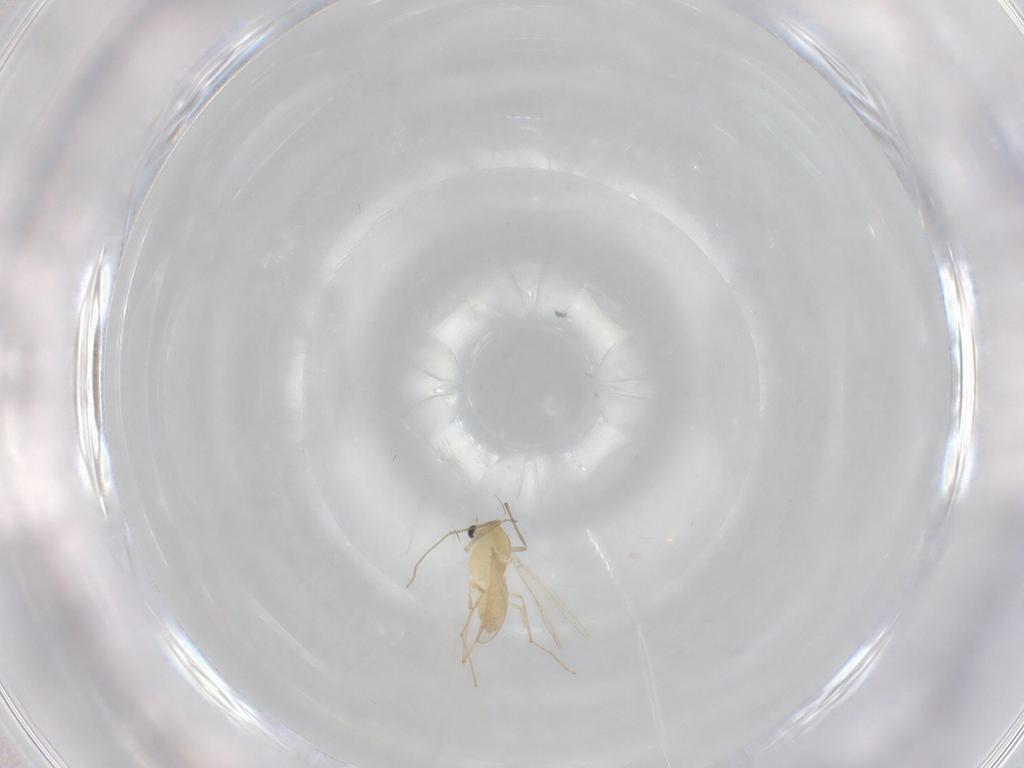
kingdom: Animalia
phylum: Arthropoda
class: Insecta
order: Diptera
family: Chironomidae
